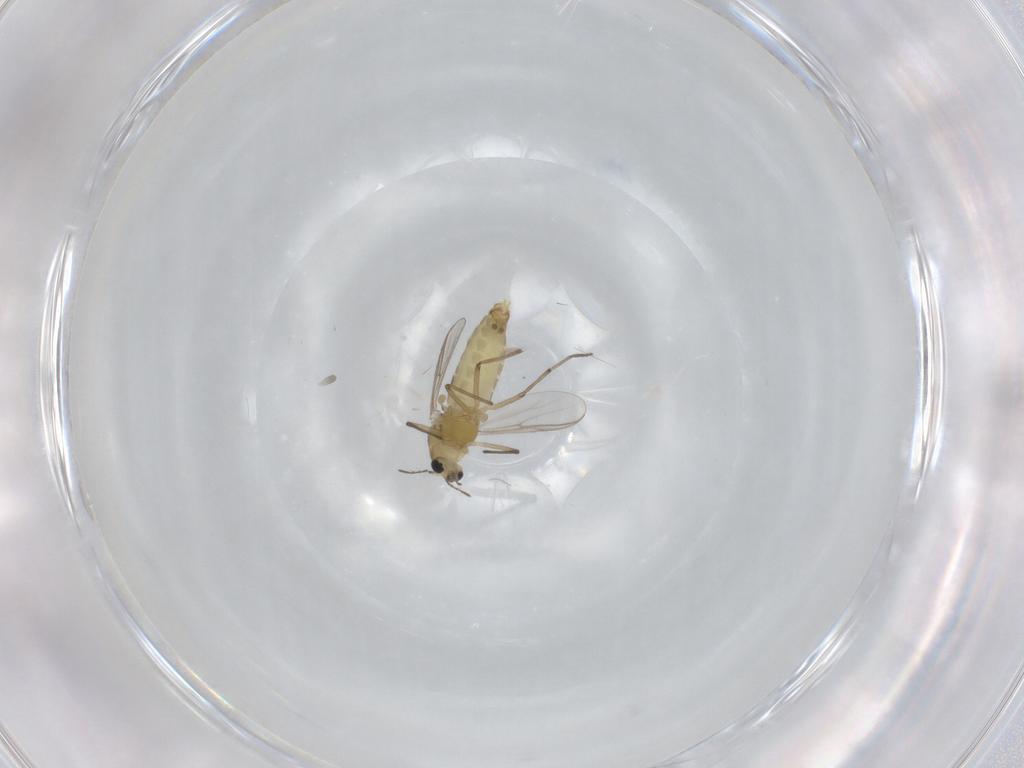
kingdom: Animalia
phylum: Arthropoda
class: Insecta
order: Diptera
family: Chironomidae
